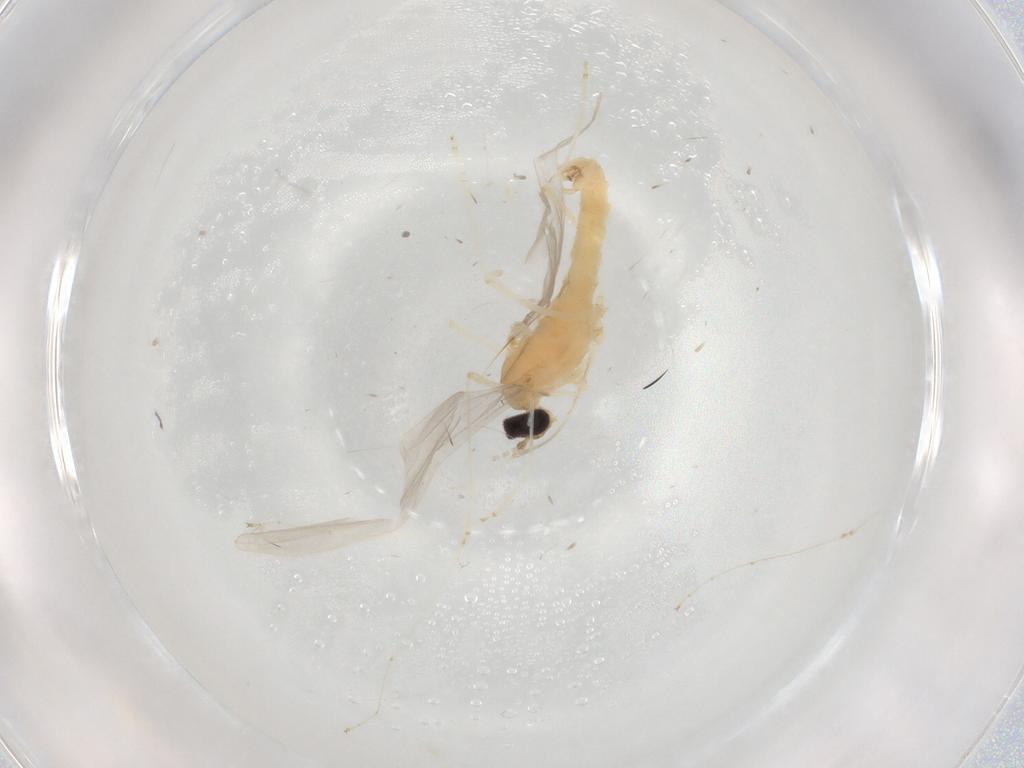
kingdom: Animalia
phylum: Arthropoda
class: Insecta
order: Diptera
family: Cecidomyiidae
